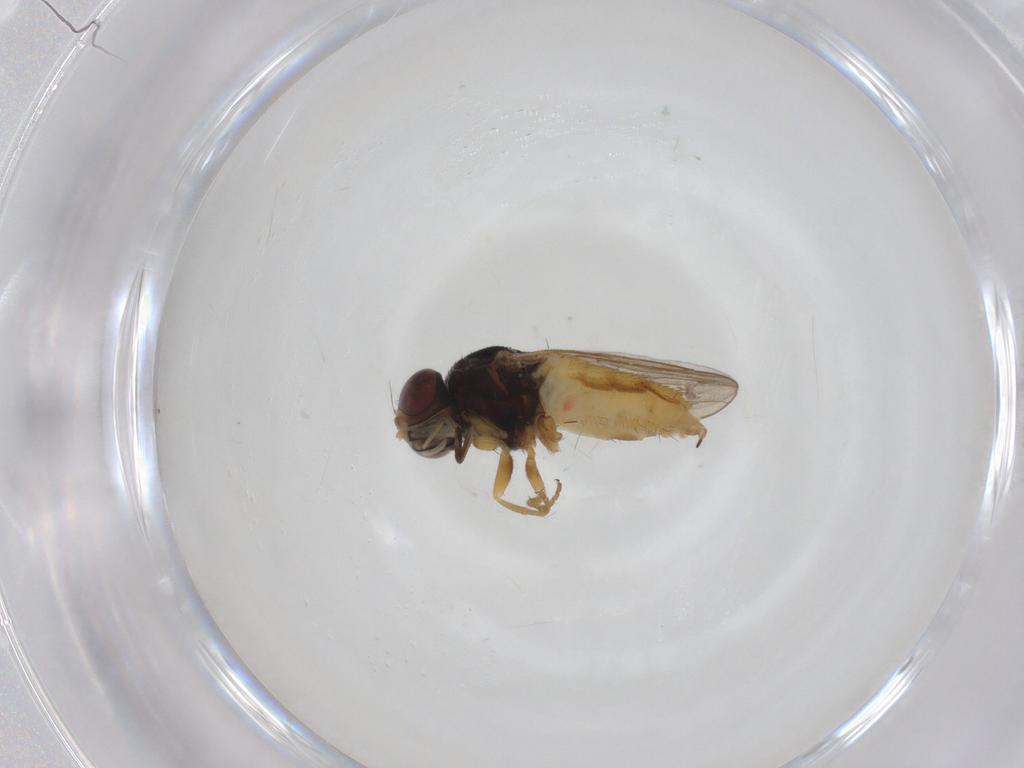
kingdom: Animalia
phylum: Arthropoda
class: Insecta
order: Diptera
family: Chloropidae
